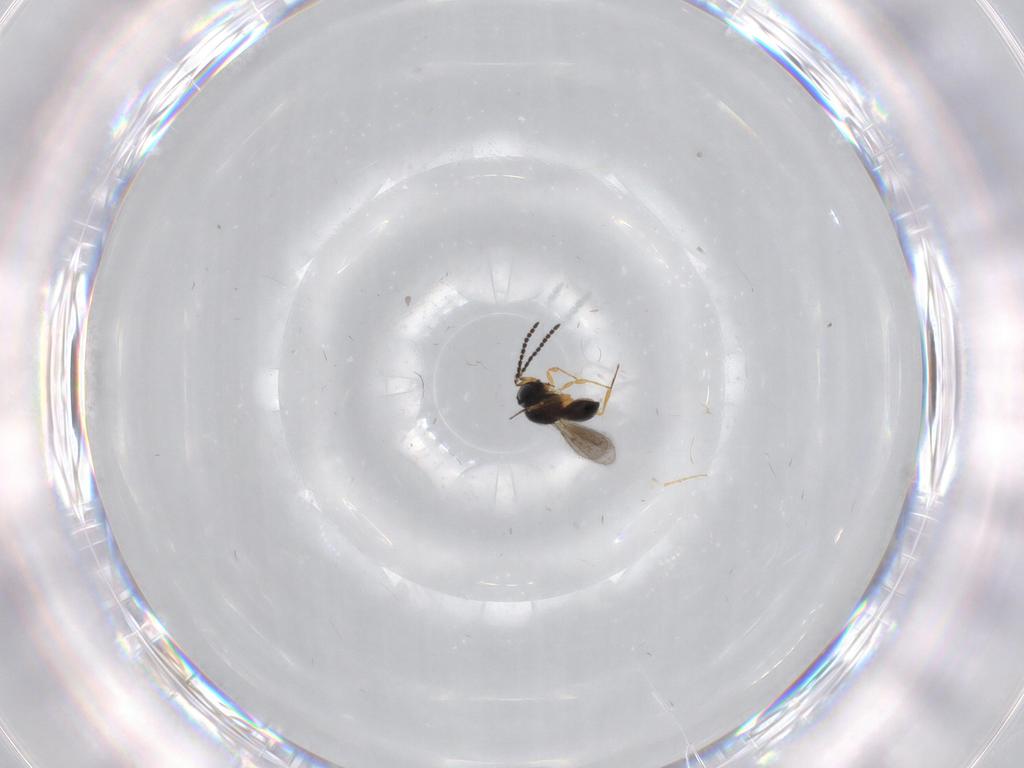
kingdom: Animalia
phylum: Arthropoda
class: Insecta
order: Hymenoptera
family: Scelionidae
